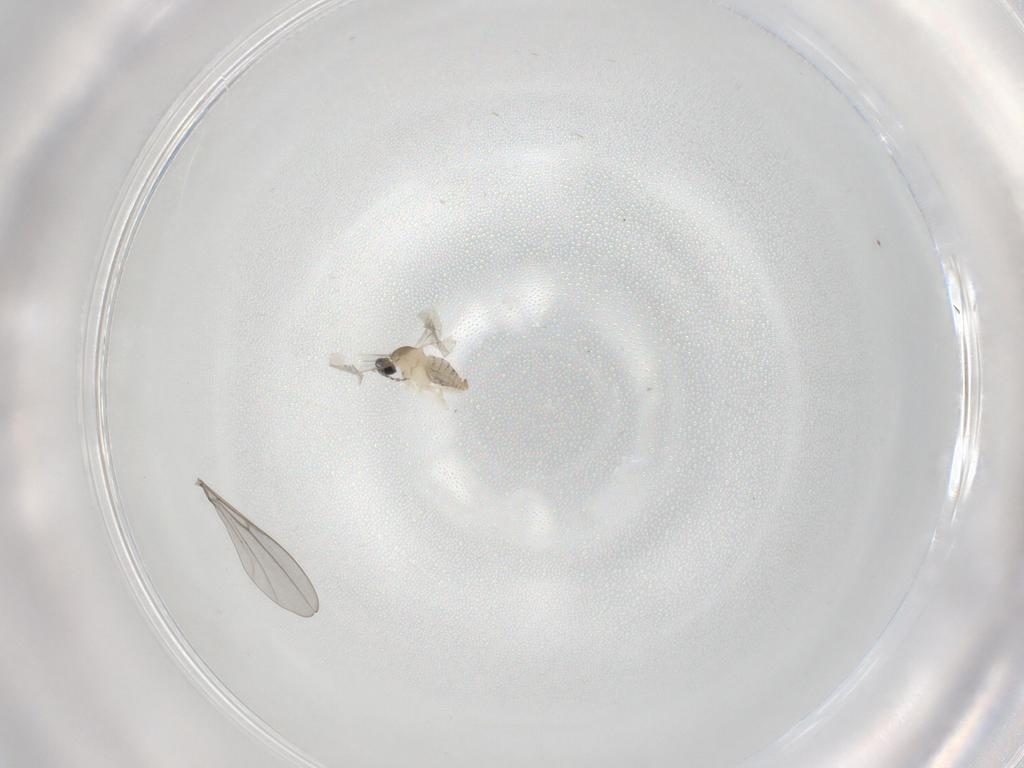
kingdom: Animalia
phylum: Arthropoda
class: Insecta
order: Diptera
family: Cecidomyiidae
